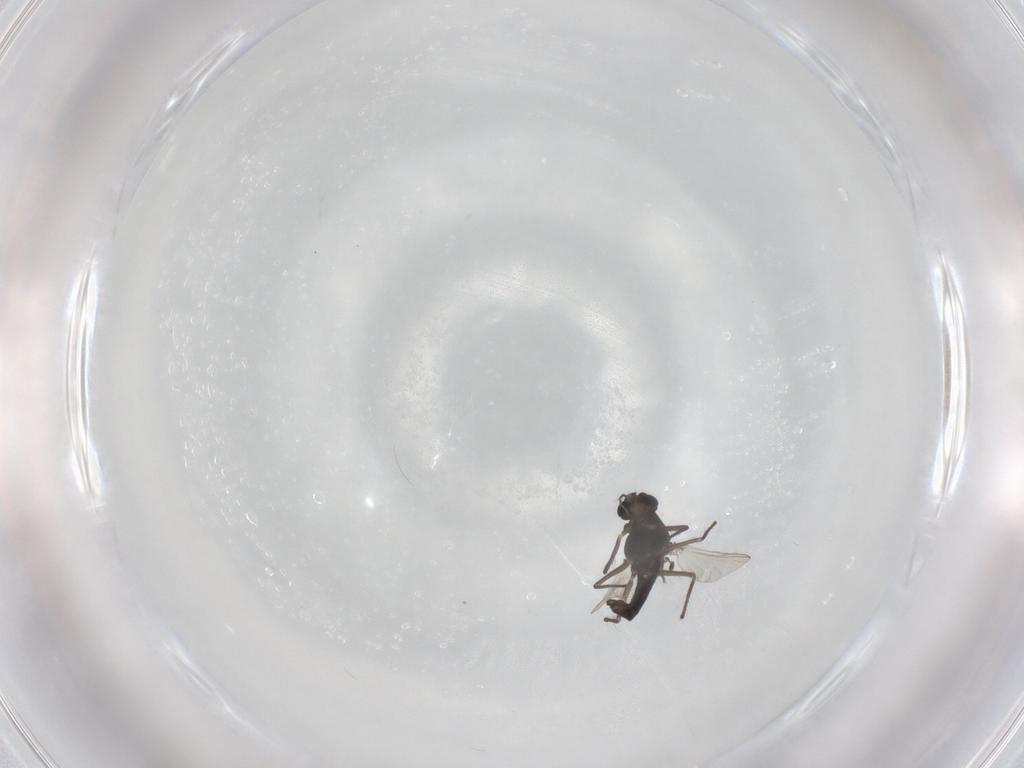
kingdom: Animalia
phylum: Arthropoda
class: Insecta
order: Diptera
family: Chironomidae
